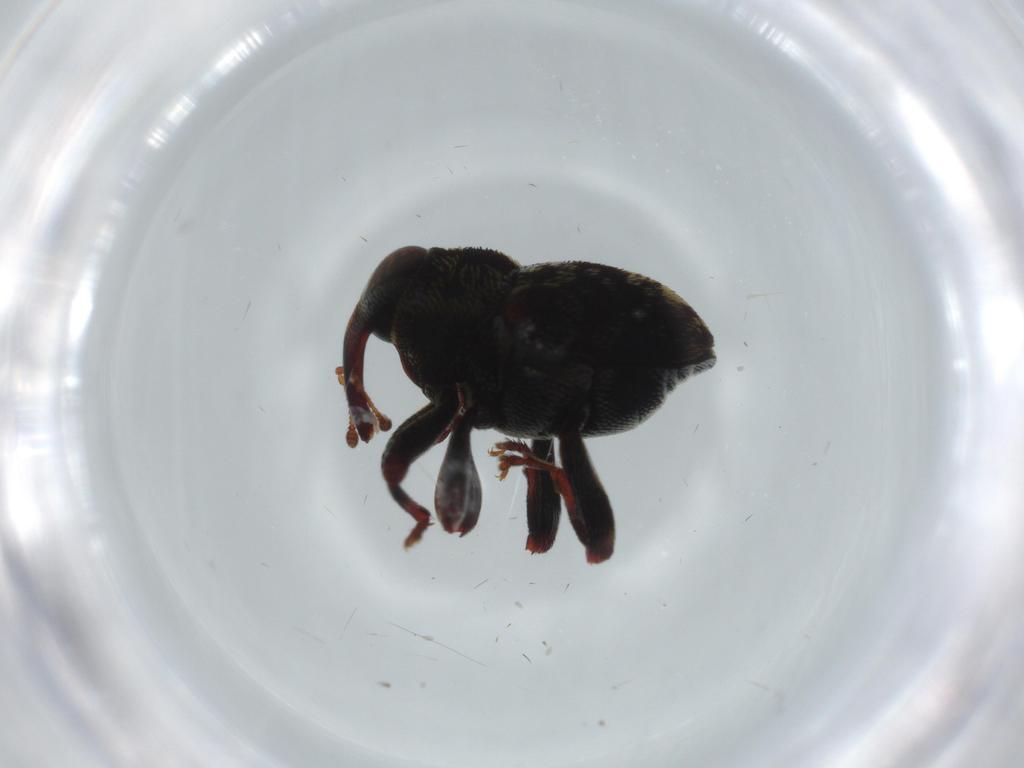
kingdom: Animalia
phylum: Arthropoda
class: Insecta
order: Coleoptera
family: Curculionidae
